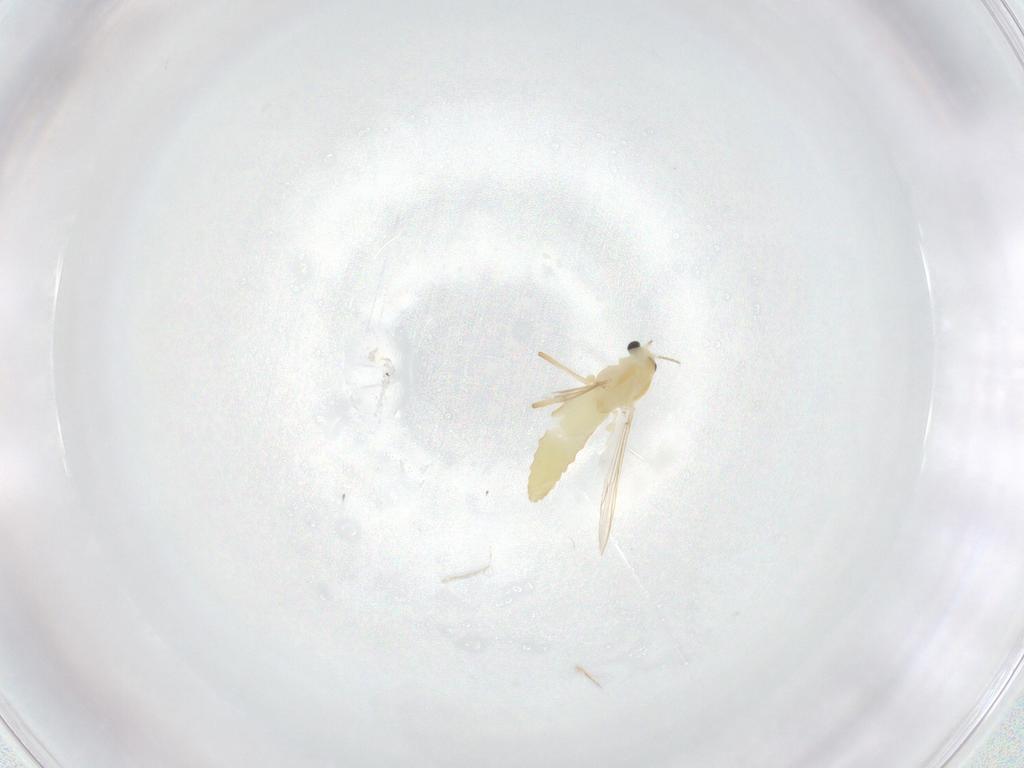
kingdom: Animalia
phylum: Arthropoda
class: Insecta
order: Diptera
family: Chironomidae
